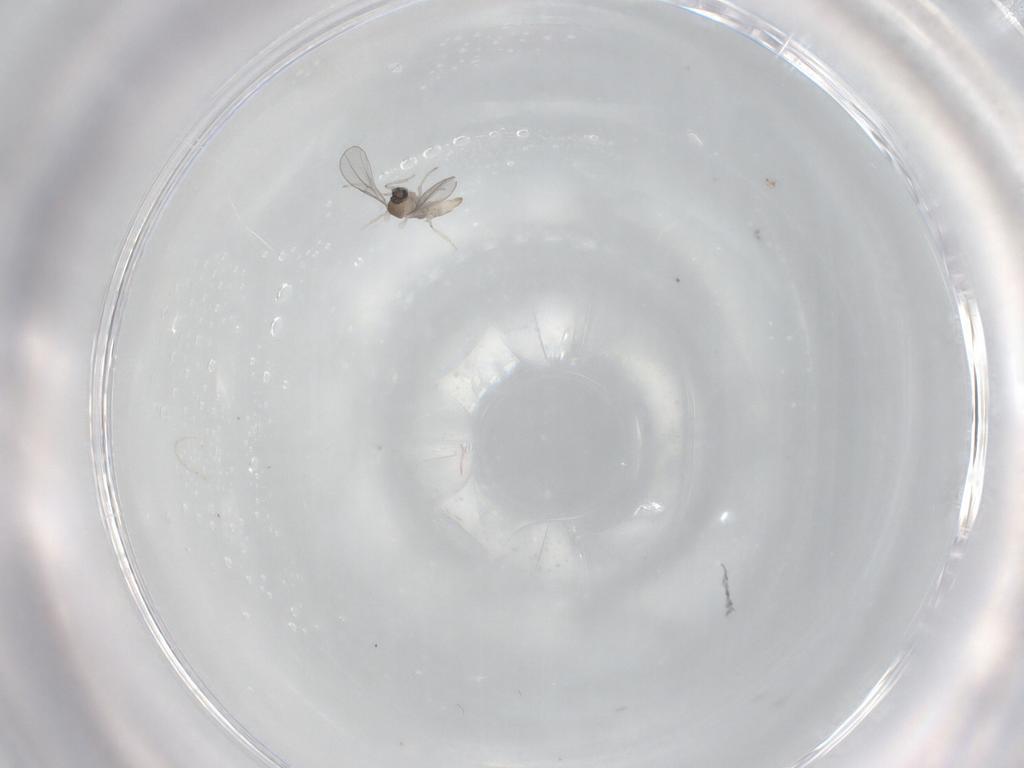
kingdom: Animalia
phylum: Arthropoda
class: Insecta
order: Diptera
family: Cecidomyiidae
